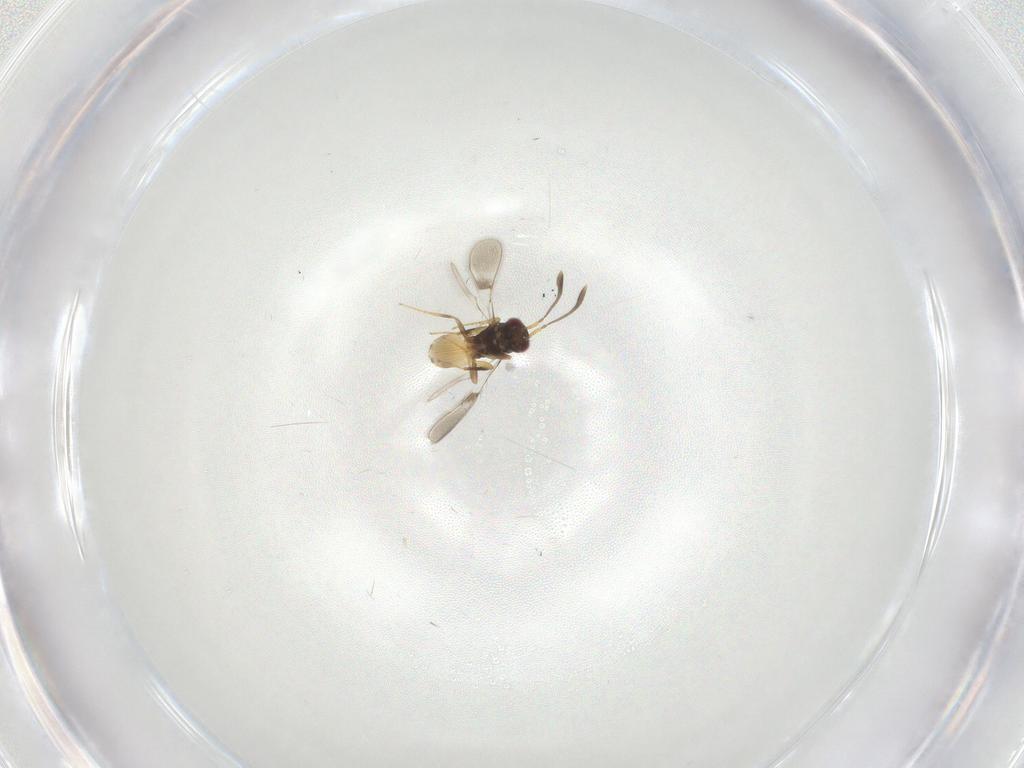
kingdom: Animalia
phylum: Arthropoda
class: Insecta
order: Hymenoptera
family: Scelionidae
